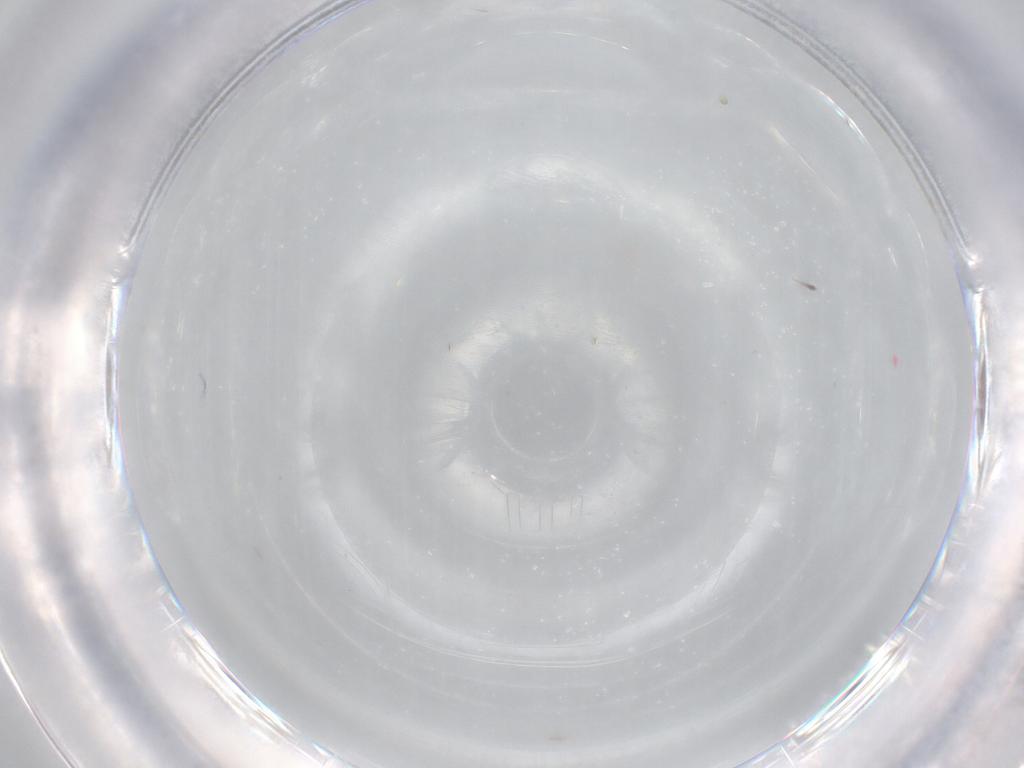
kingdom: Animalia
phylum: Arthropoda
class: Insecta
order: Diptera
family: Cecidomyiidae
